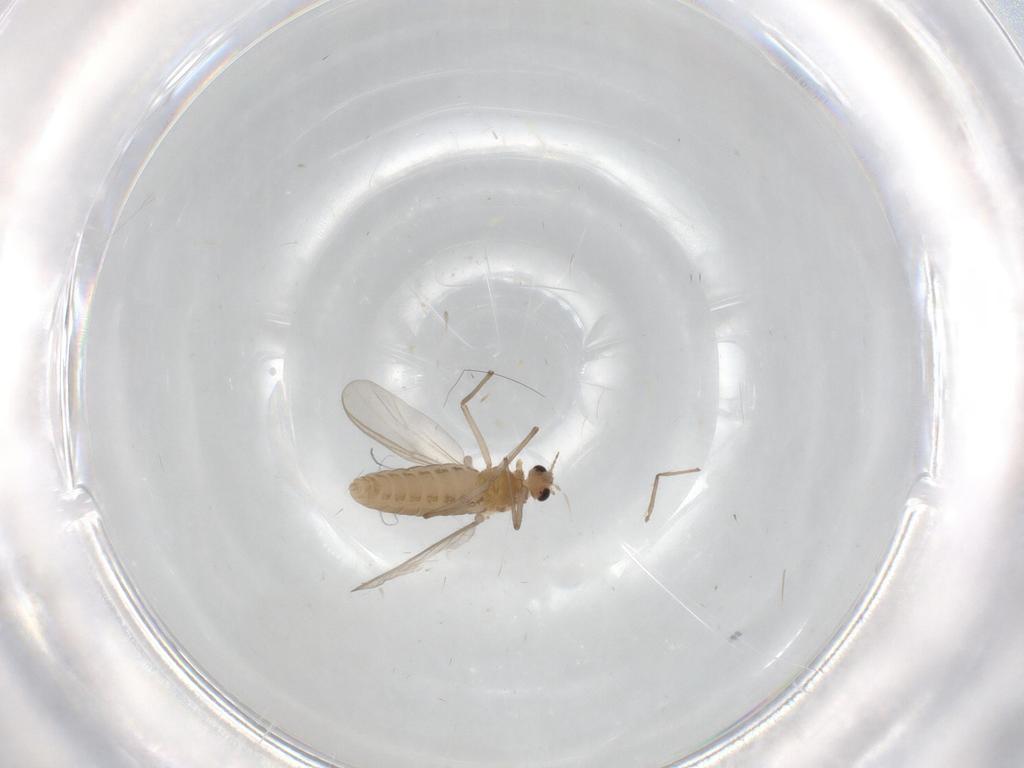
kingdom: Animalia
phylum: Arthropoda
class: Insecta
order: Diptera
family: Chironomidae
